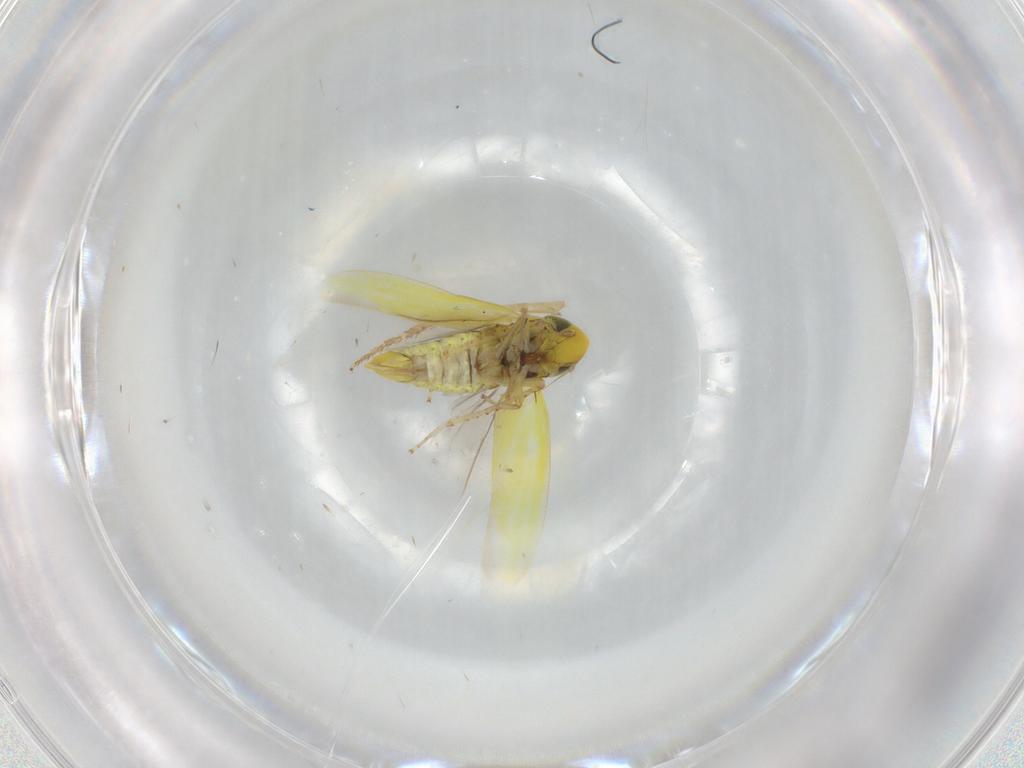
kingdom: Animalia
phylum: Arthropoda
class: Insecta
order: Hemiptera
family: Cicadellidae
